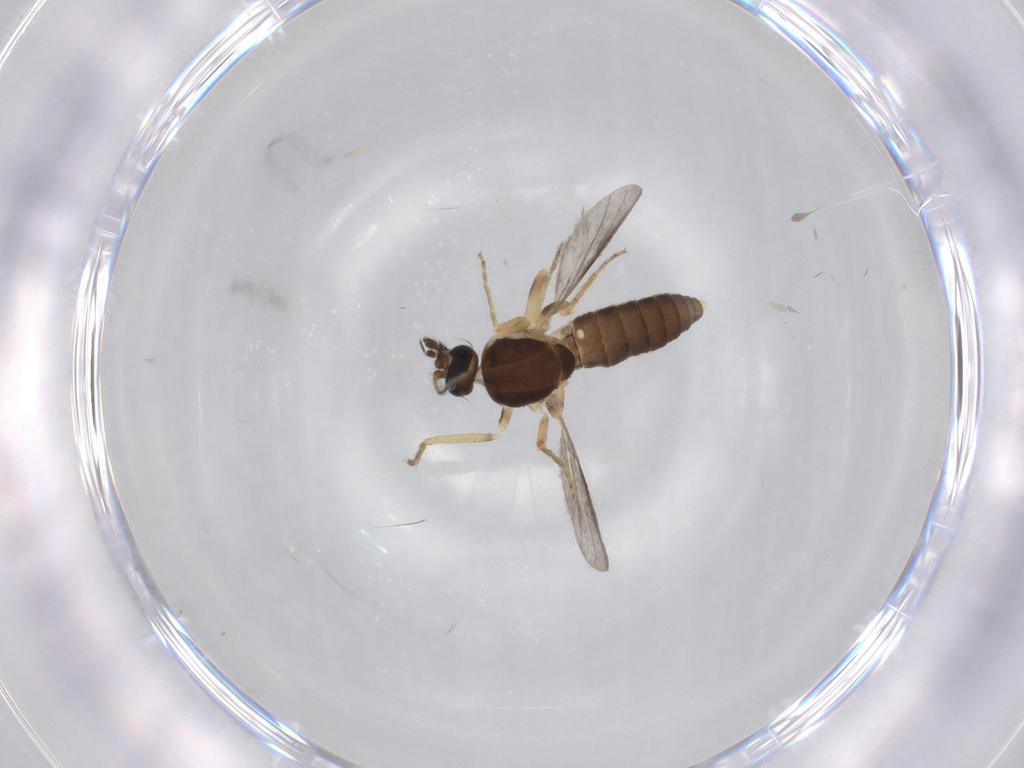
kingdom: Animalia
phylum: Arthropoda
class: Insecta
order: Diptera
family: Ceratopogonidae
